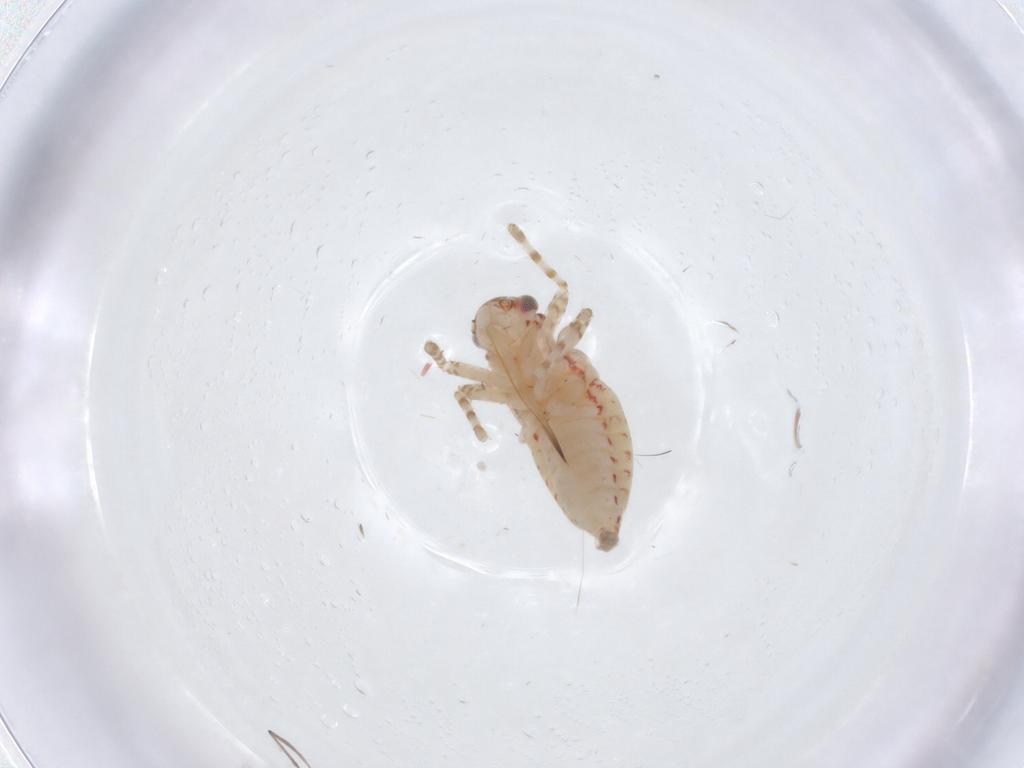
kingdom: Animalia
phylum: Arthropoda
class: Insecta
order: Hemiptera
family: Miridae
